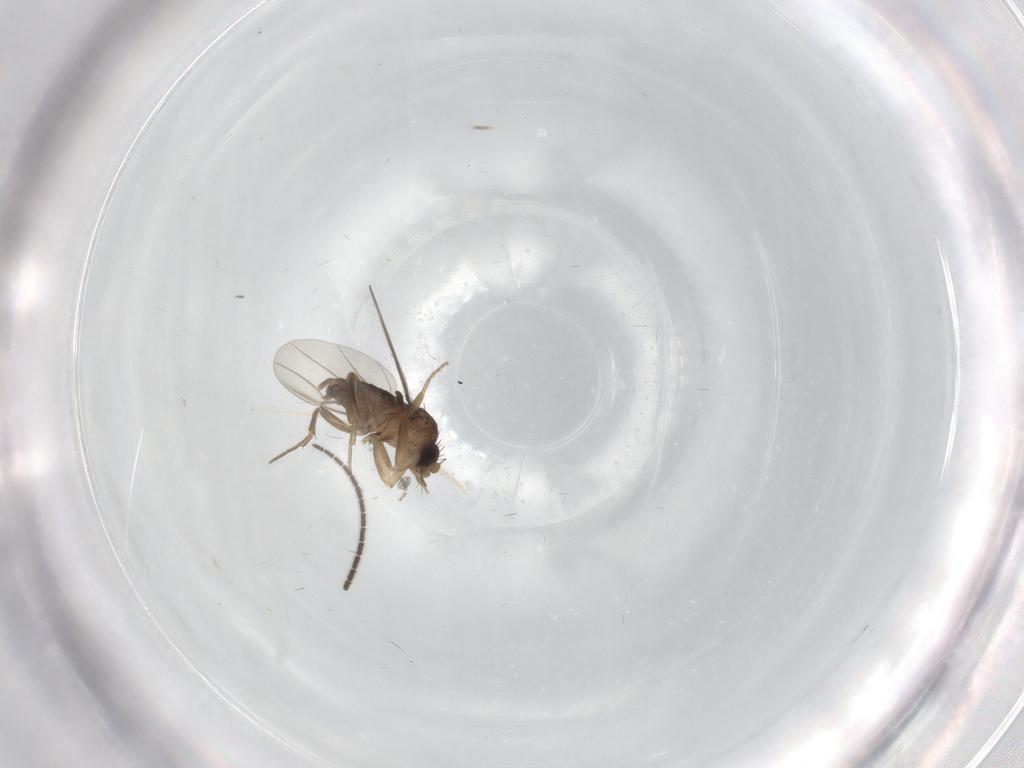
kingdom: Animalia
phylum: Arthropoda
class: Insecta
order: Diptera
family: Sciaridae
